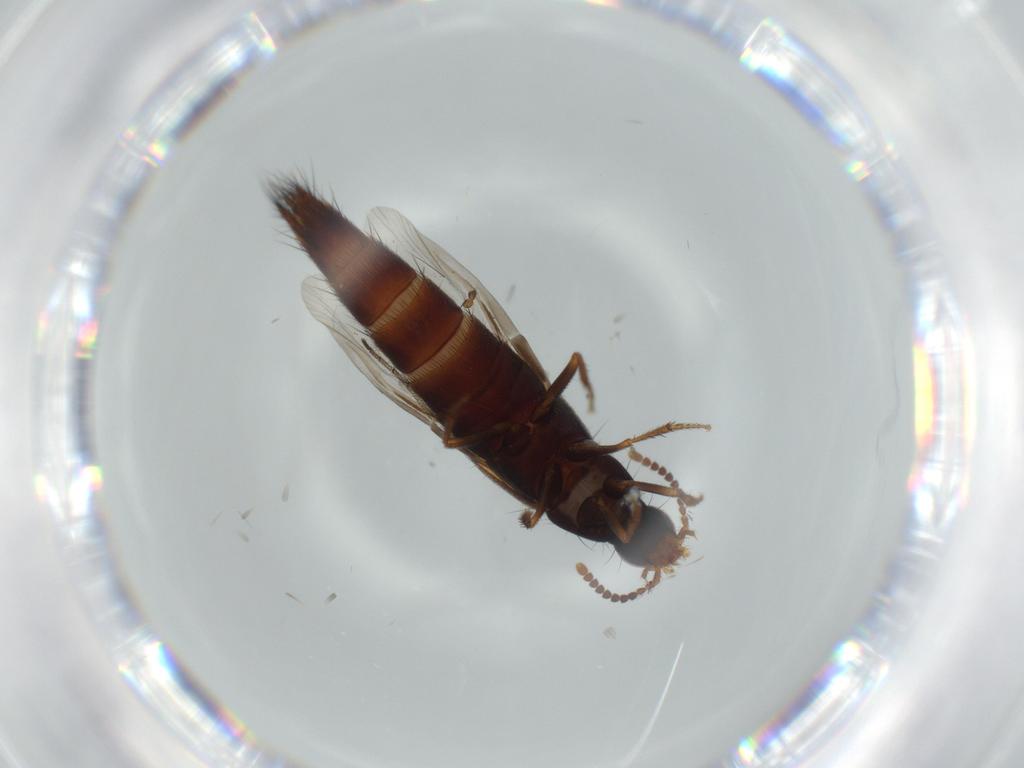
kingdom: Animalia
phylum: Arthropoda
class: Insecta
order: Coleoptera
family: Staphylinidae
